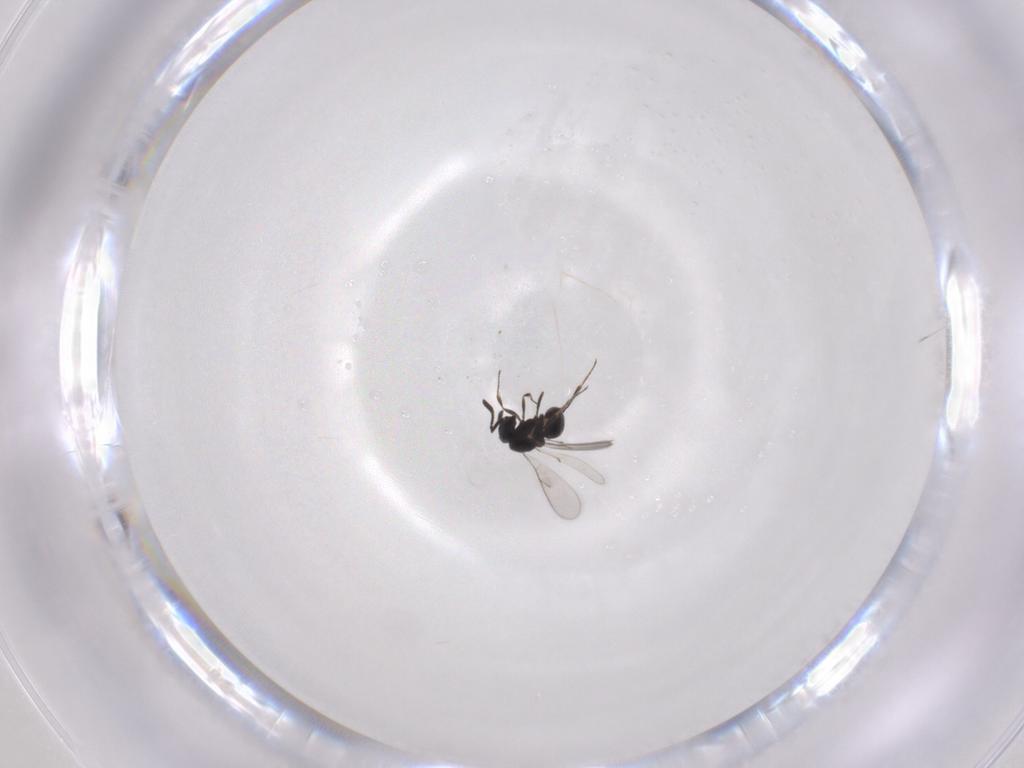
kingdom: Animalia
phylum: Arthropoda
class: Insecta
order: Hymenoptera
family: Scelionidae
